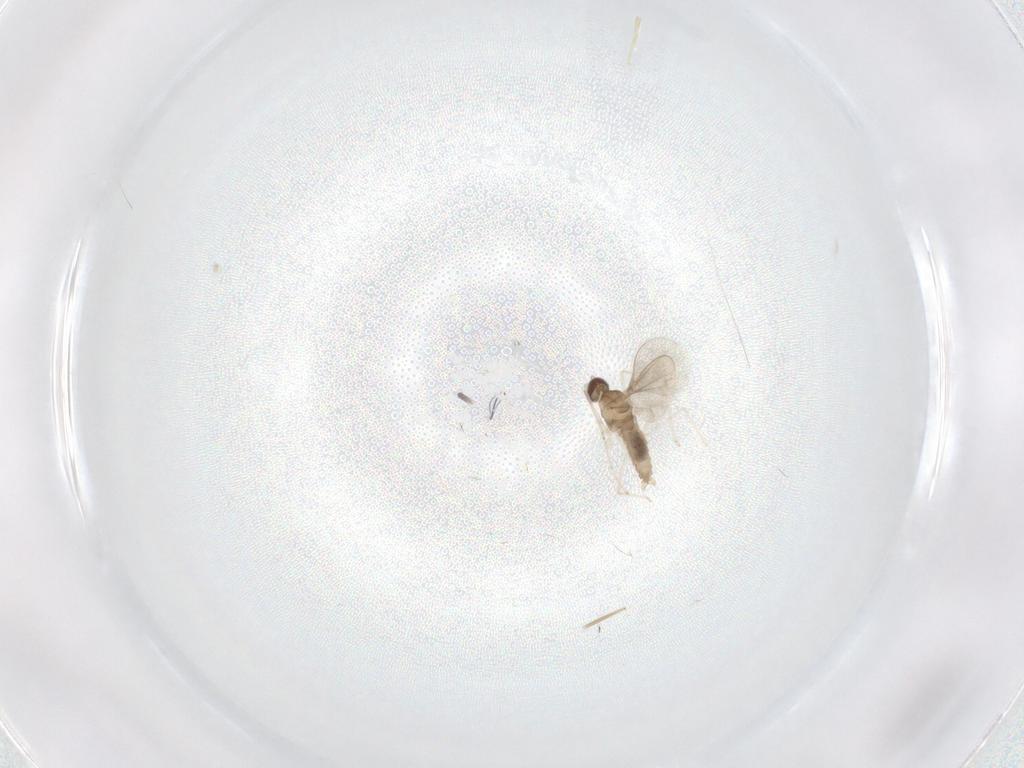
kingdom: Animalia
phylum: Arthropoda
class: Insecta
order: Diptera
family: Cecidomyiidae
